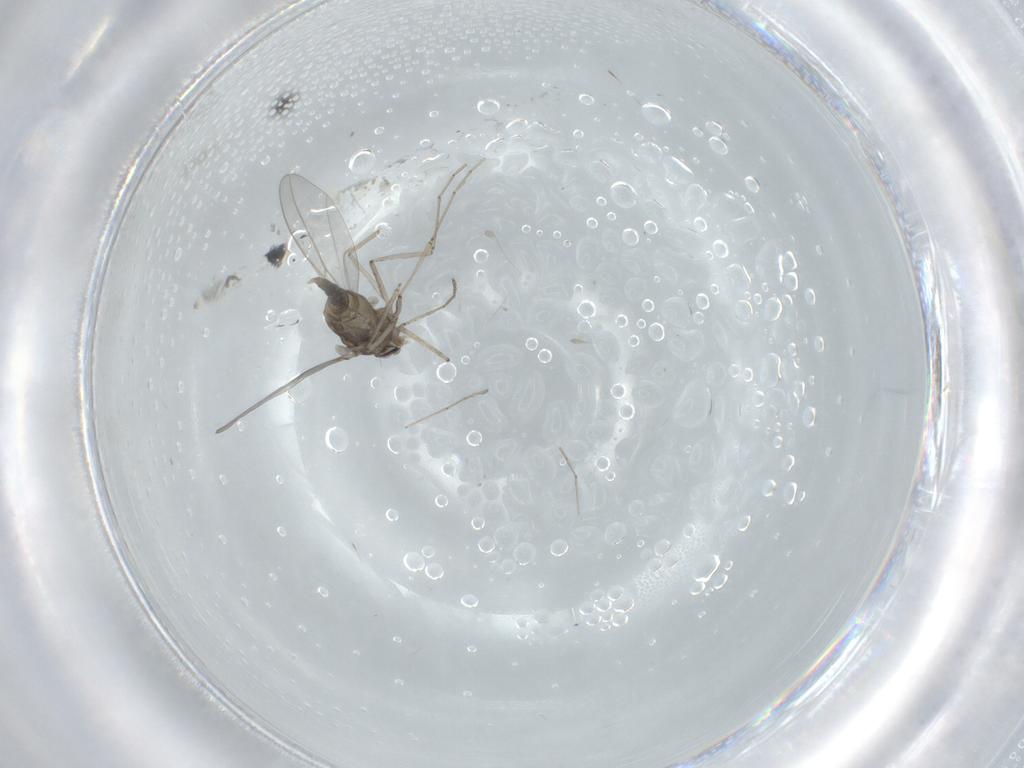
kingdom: Animalia
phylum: Arthropoda
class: Insecta
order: Diptera
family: Cecidomyiidae
